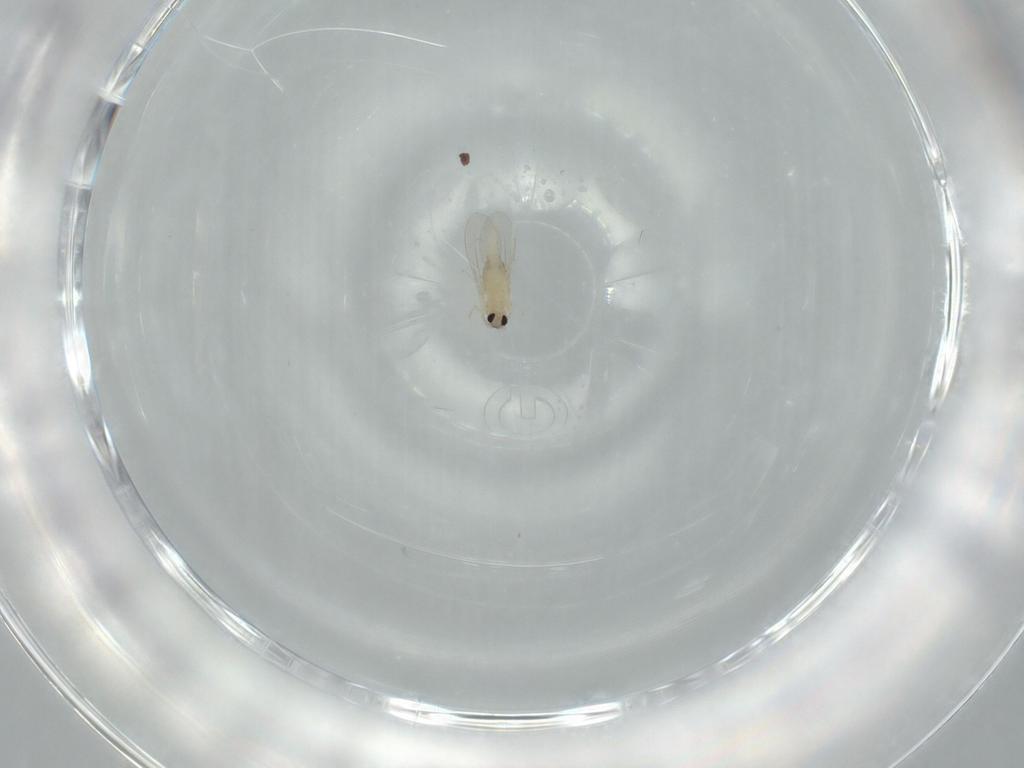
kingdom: Animalia
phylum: Arthropoda
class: Insecta
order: Diptera
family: Cecidomyiidae
